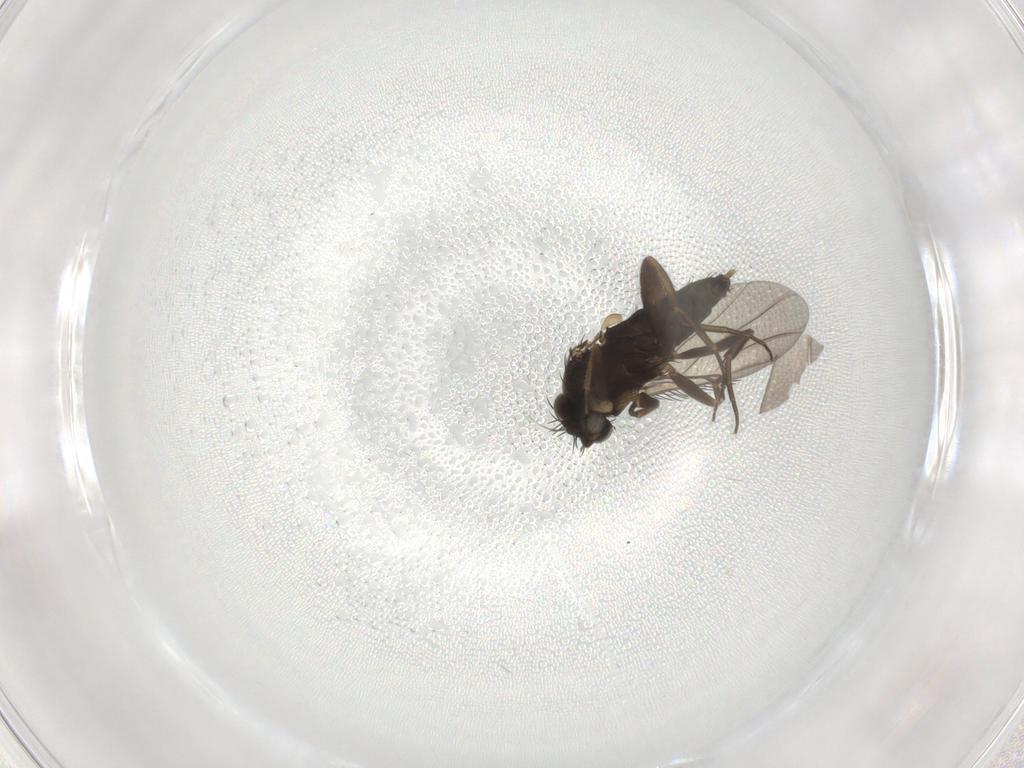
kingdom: Animalia
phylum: Arthropoda
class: Insecta
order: Diptera
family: Phoridae
